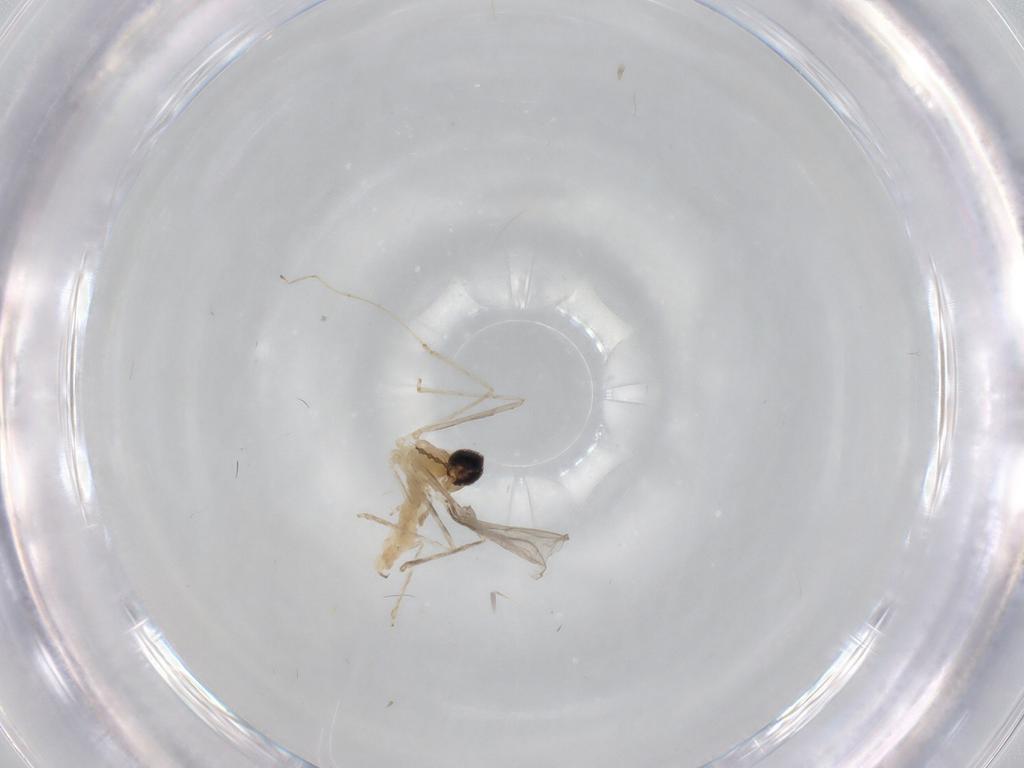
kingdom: Animalia
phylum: Arthropoda
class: Insecta
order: Diptera
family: Cecidomyiidae
